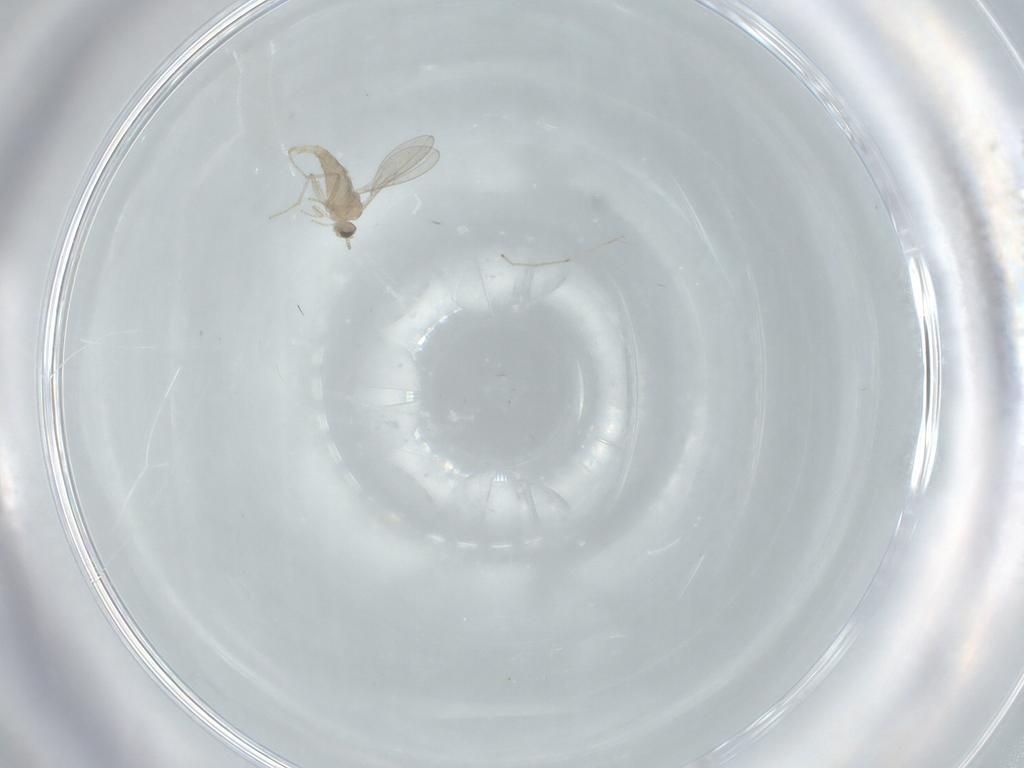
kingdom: Animalia
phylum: Arthropoda
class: Insecta
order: Diptera
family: Cecidomyiidae
